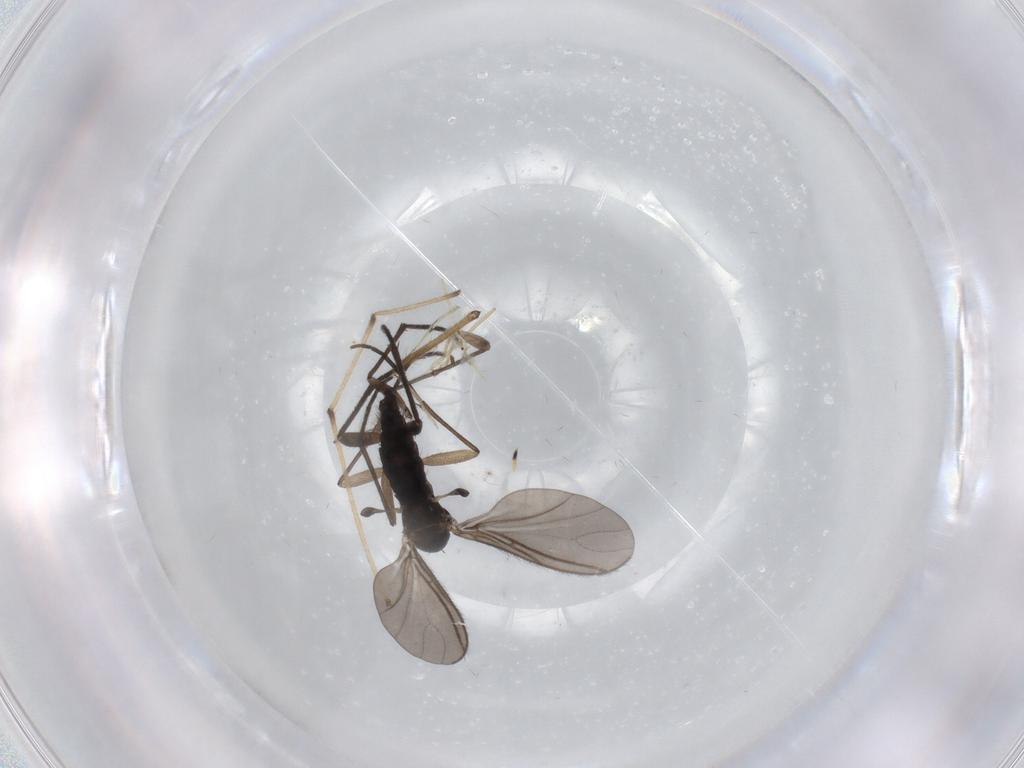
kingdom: Animalia
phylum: Arthropoda
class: Insecta
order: Diptera
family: Sciaridae
